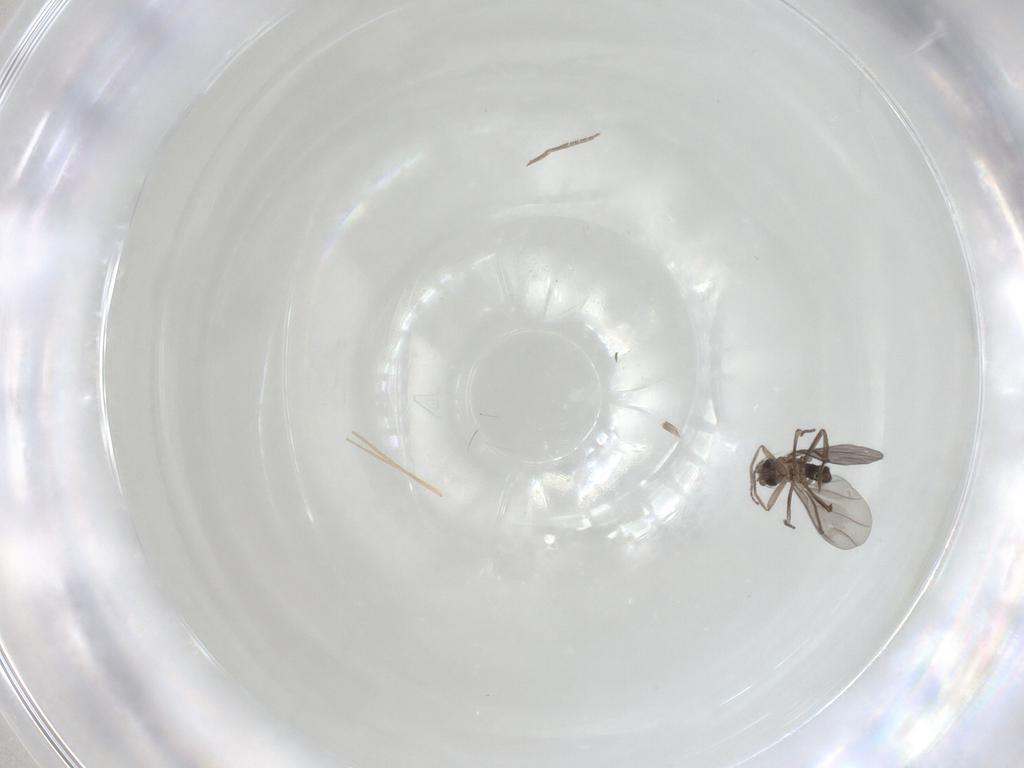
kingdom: Animalia
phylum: Arthropoda
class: Insecta
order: Diptera
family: Phoridae
